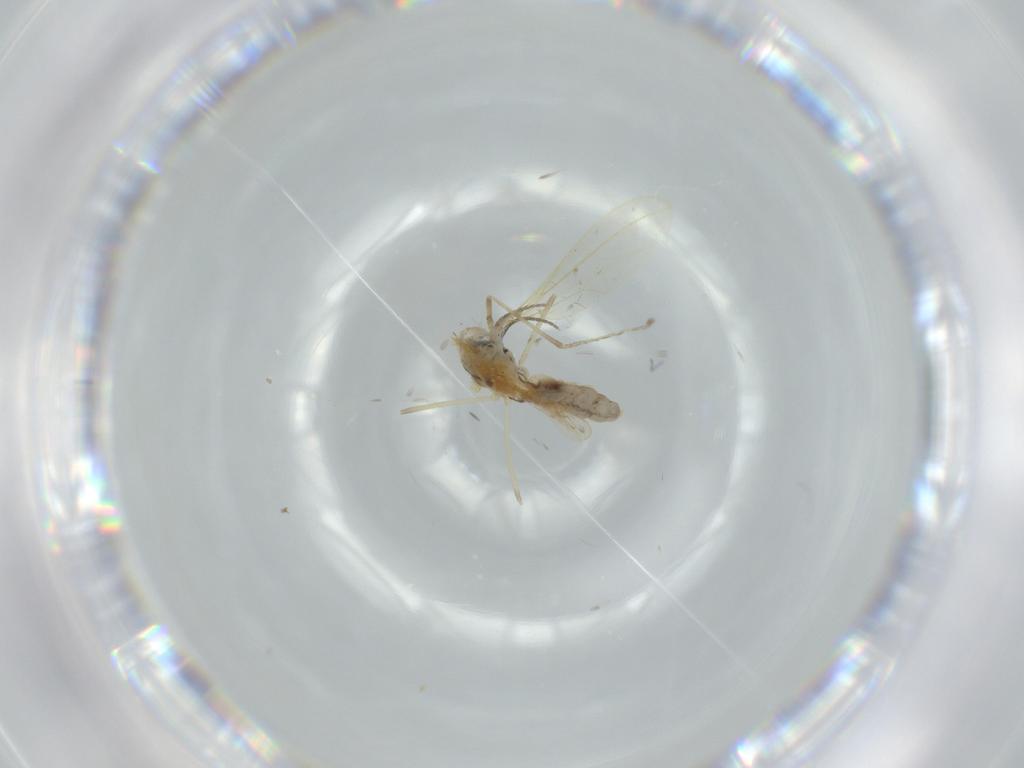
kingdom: Animalia
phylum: Arthropoda
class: Insecta
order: Diptera
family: Cecidomyiidae
